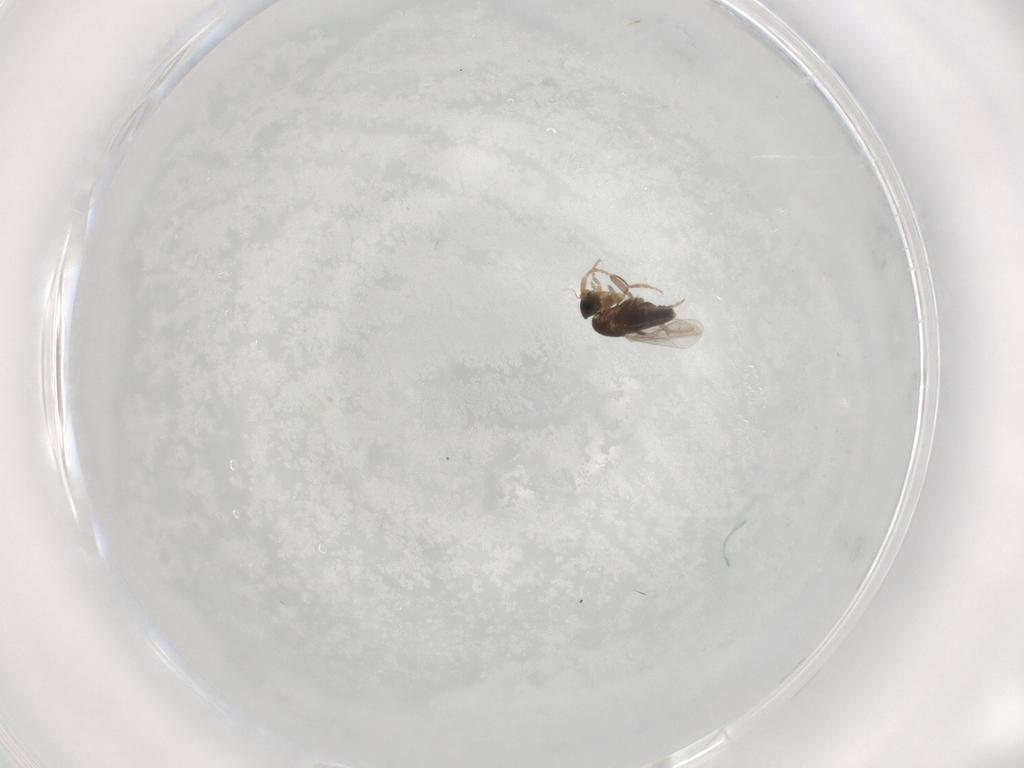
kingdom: Animalia
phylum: Arthropoda
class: Insecta
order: Diptera
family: Phoridae
